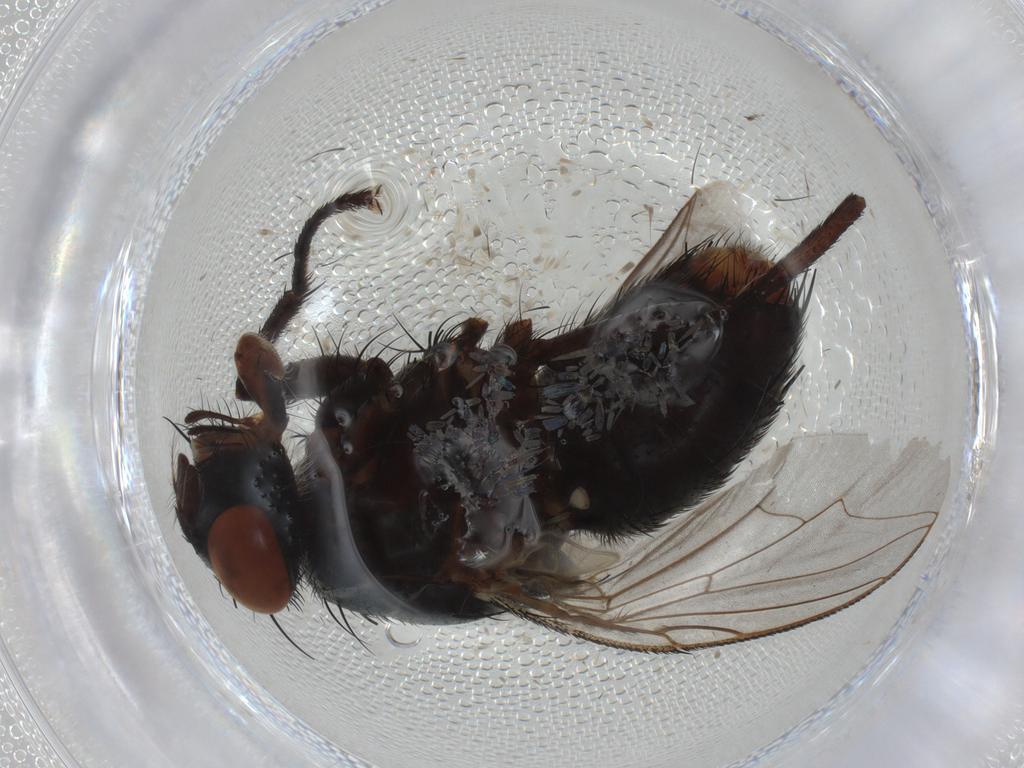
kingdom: Animalia
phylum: Arthropoda
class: Insecta
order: Diptera
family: Sarcophagidae
